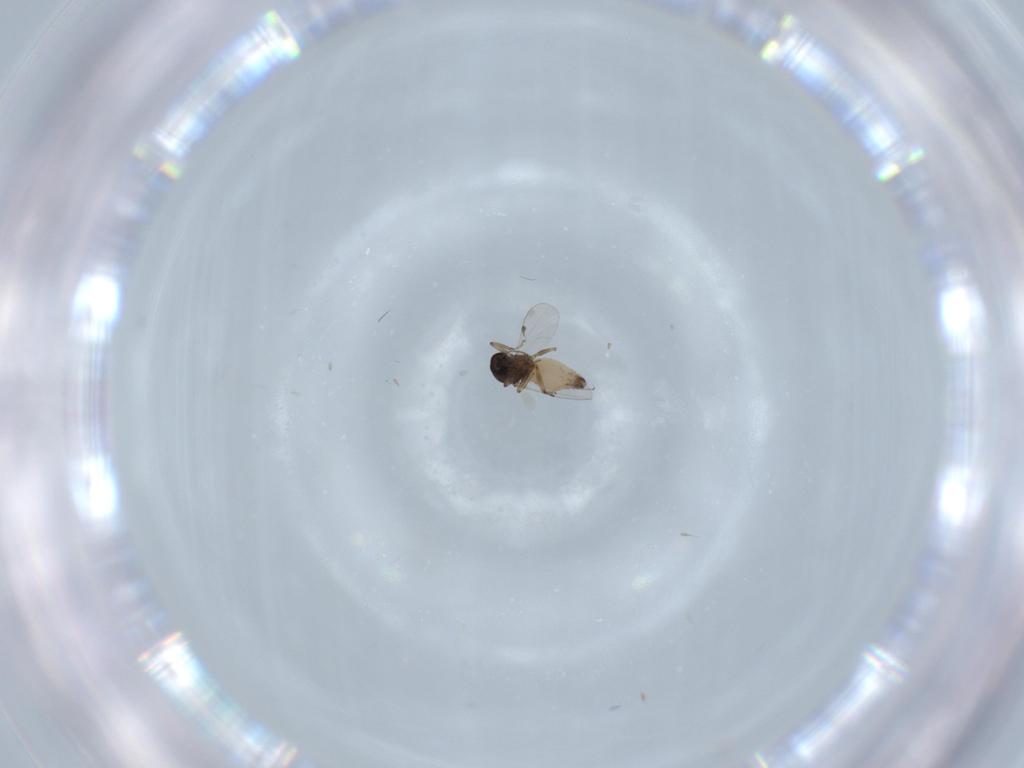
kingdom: Animalia
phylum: Arthropoda
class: Insecta
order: Diptera
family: Ceratopogonidae
